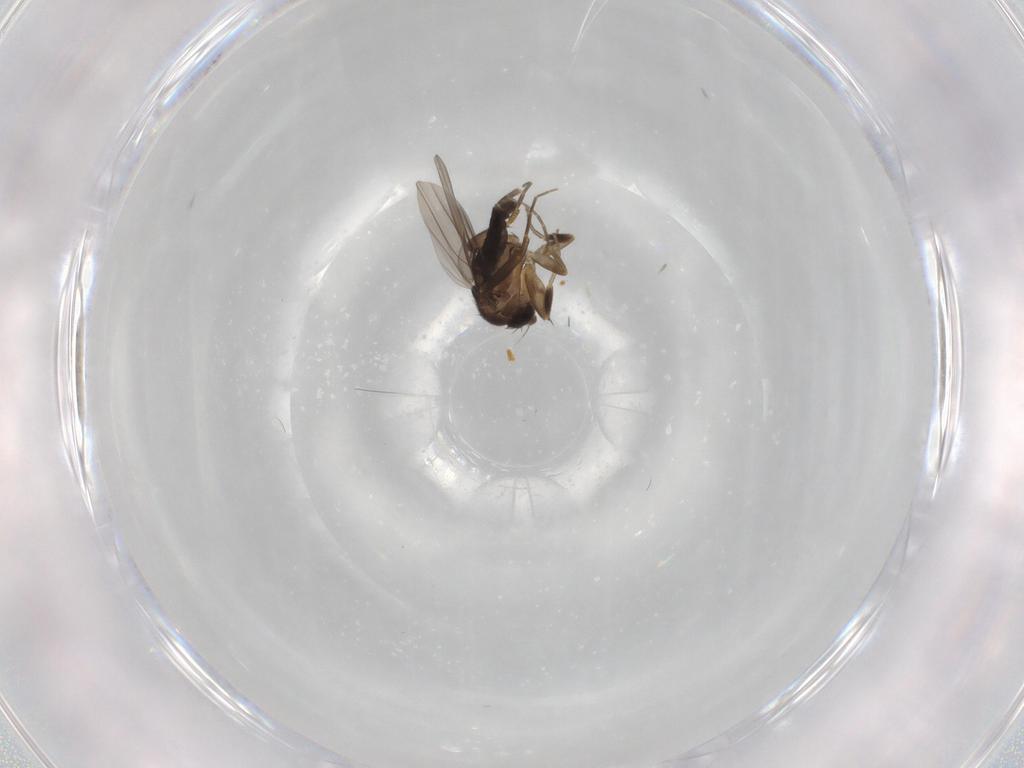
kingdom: Animalia
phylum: Arthropoda
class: Insecta
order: Diptera
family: Phoridae
